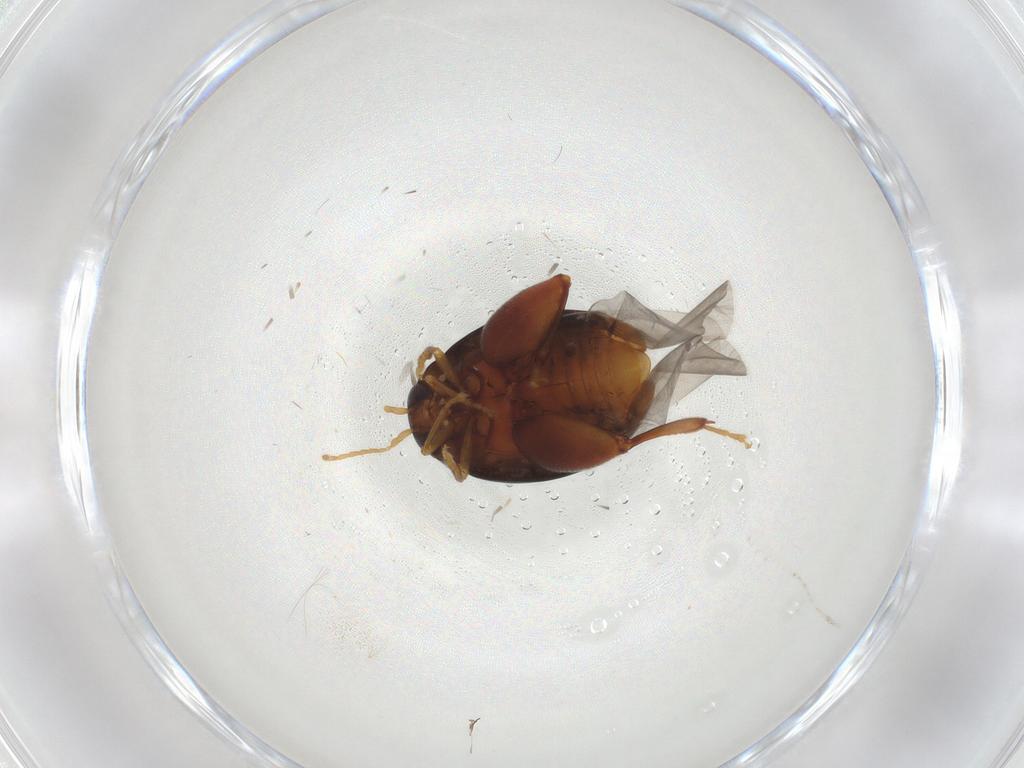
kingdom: Animalia
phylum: Arthropoda
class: Insecta
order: Coleoptera
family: Chrysomelidae
